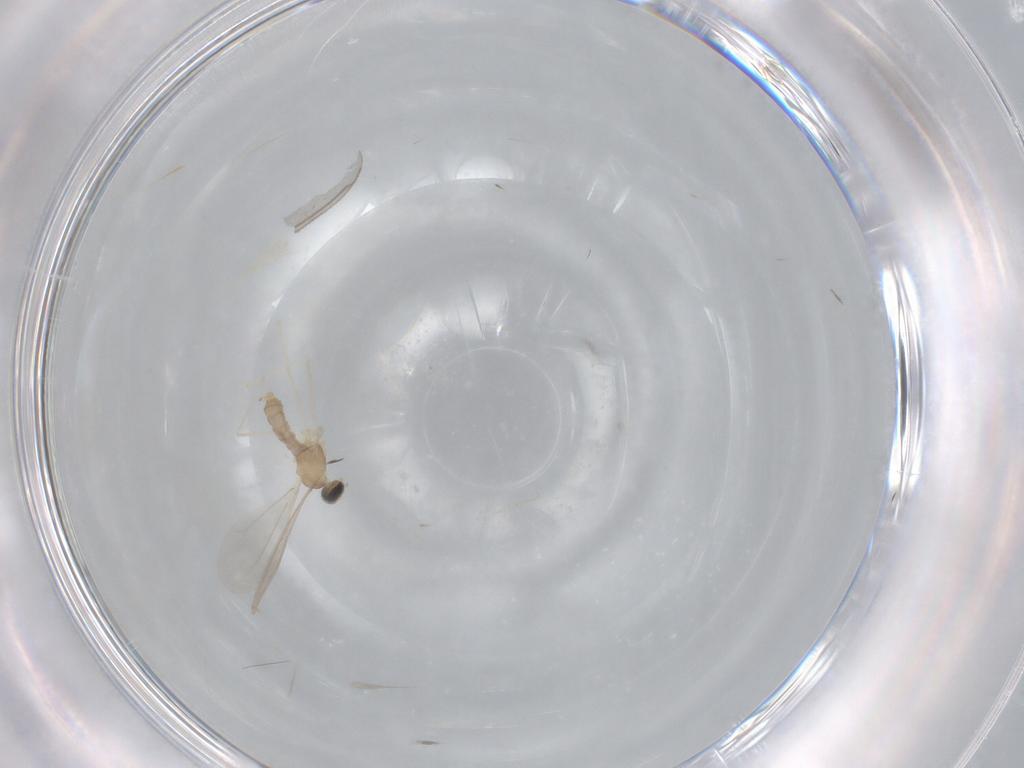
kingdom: Animalia
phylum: Arthropoda
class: Insecta
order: Diptera
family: Cecidomyiidae
